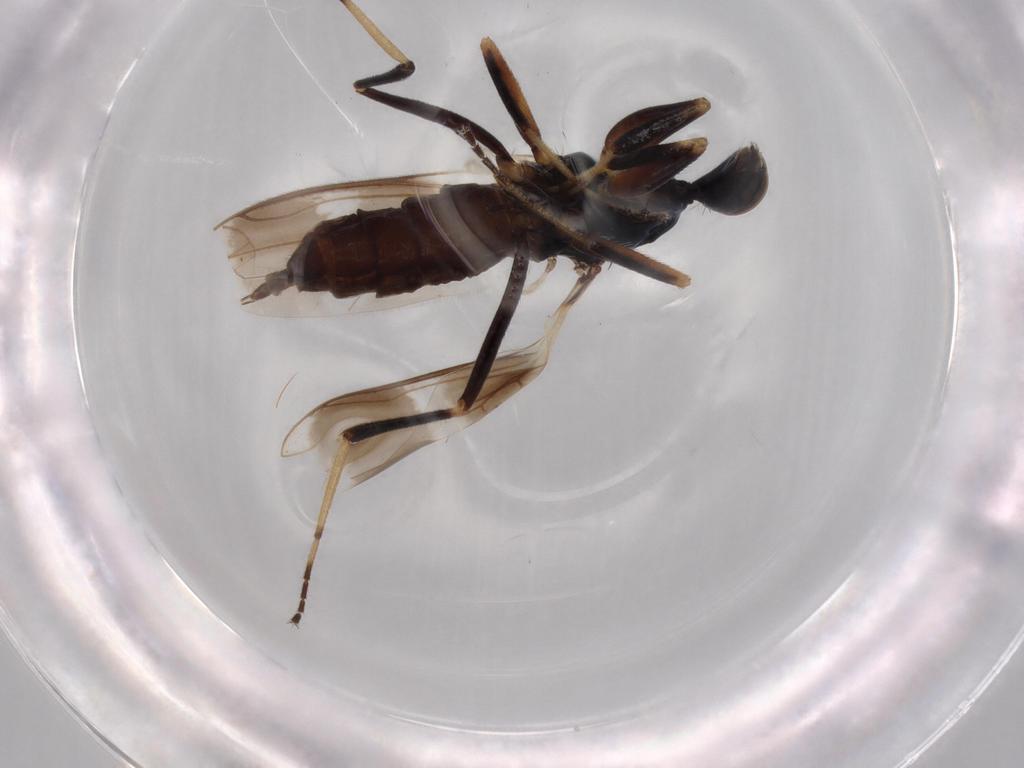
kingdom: Animalia
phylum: Arthropoda
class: Insecta
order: Diptera
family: Hybotidae
